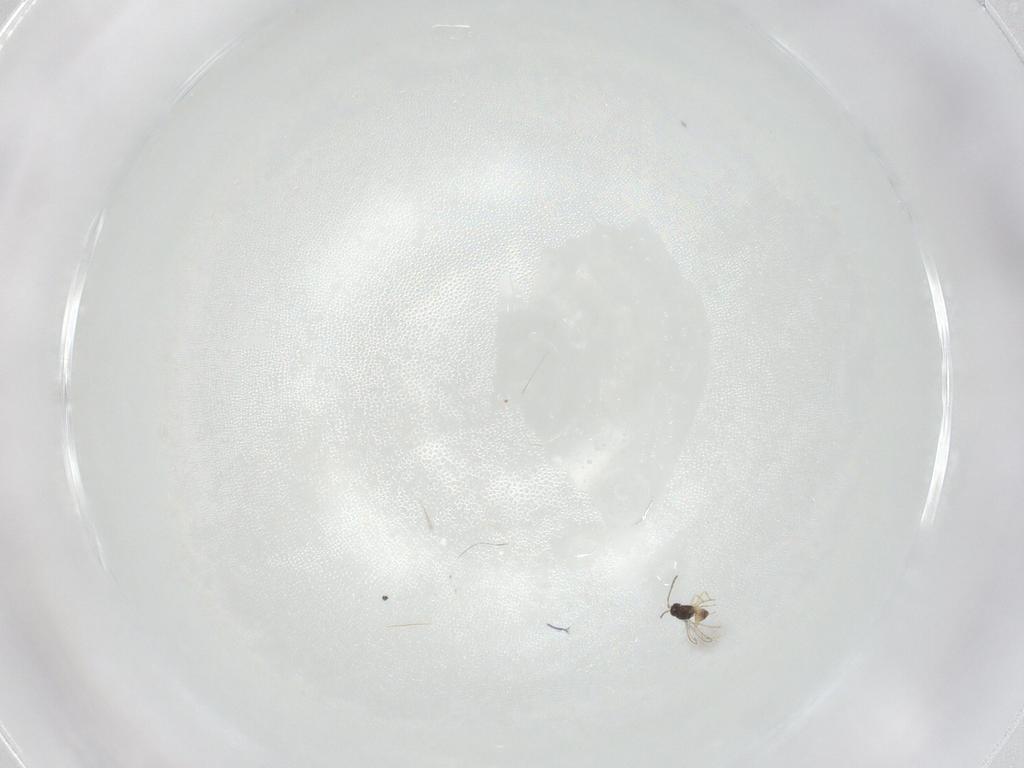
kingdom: Animalia
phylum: Arthropoda
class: Insecta
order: Hymenoptera
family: Mymaridae
